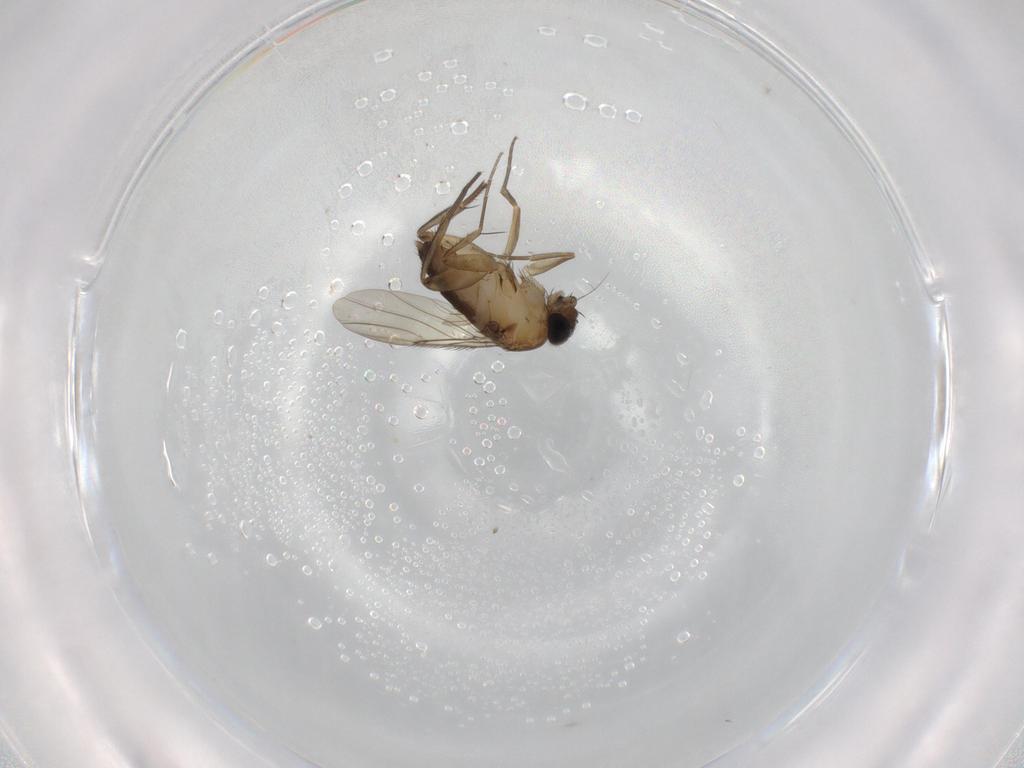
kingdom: Animalia
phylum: Arthropoda
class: Insecta
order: Diptera
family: Phoridae
